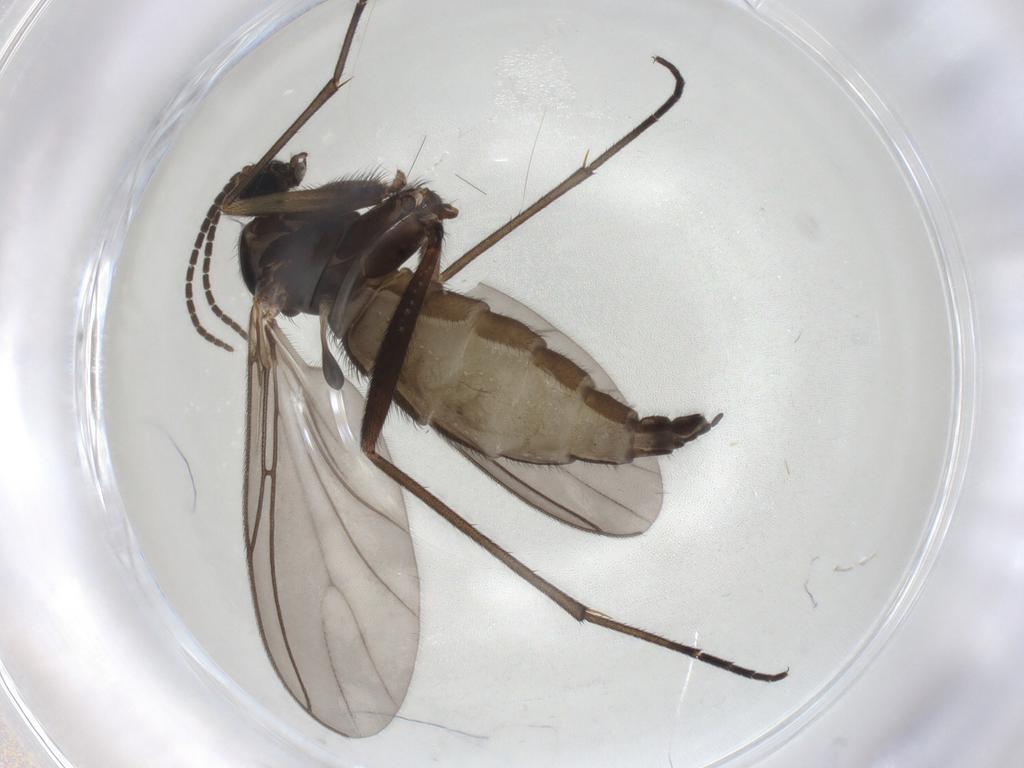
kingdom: Animalia
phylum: Arthropoda
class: Insecta
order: Diptera
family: Sciaridae
